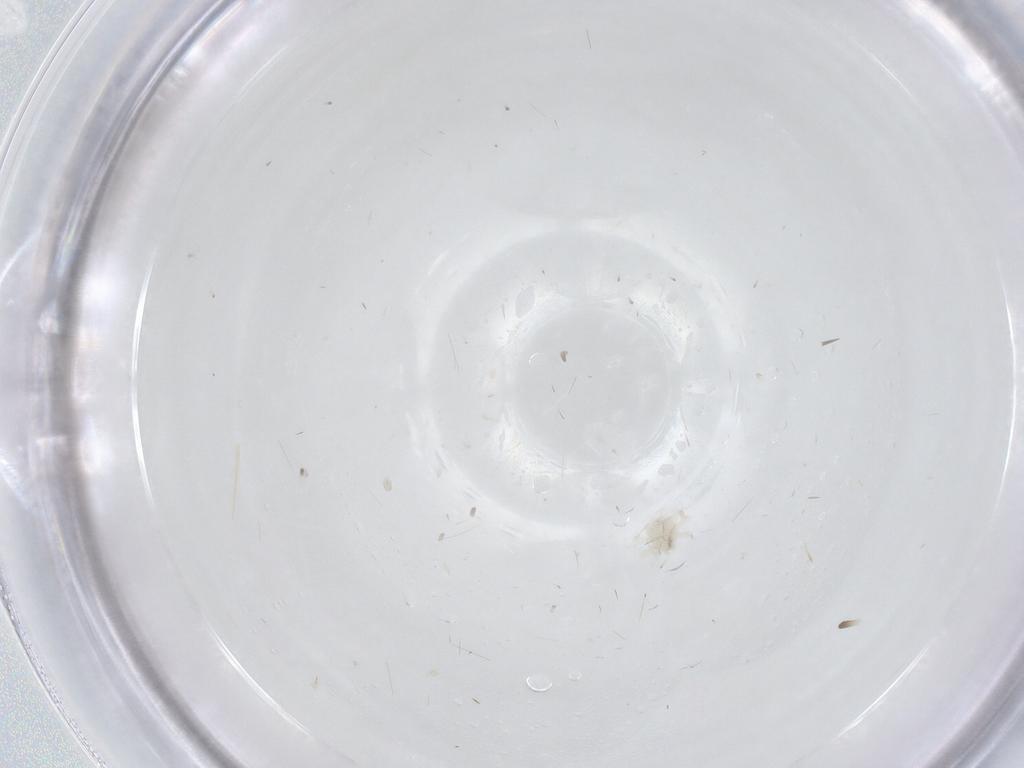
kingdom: Animalia
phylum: Arthropoda
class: Arachnida
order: Trombidiformes
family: Anystidae
